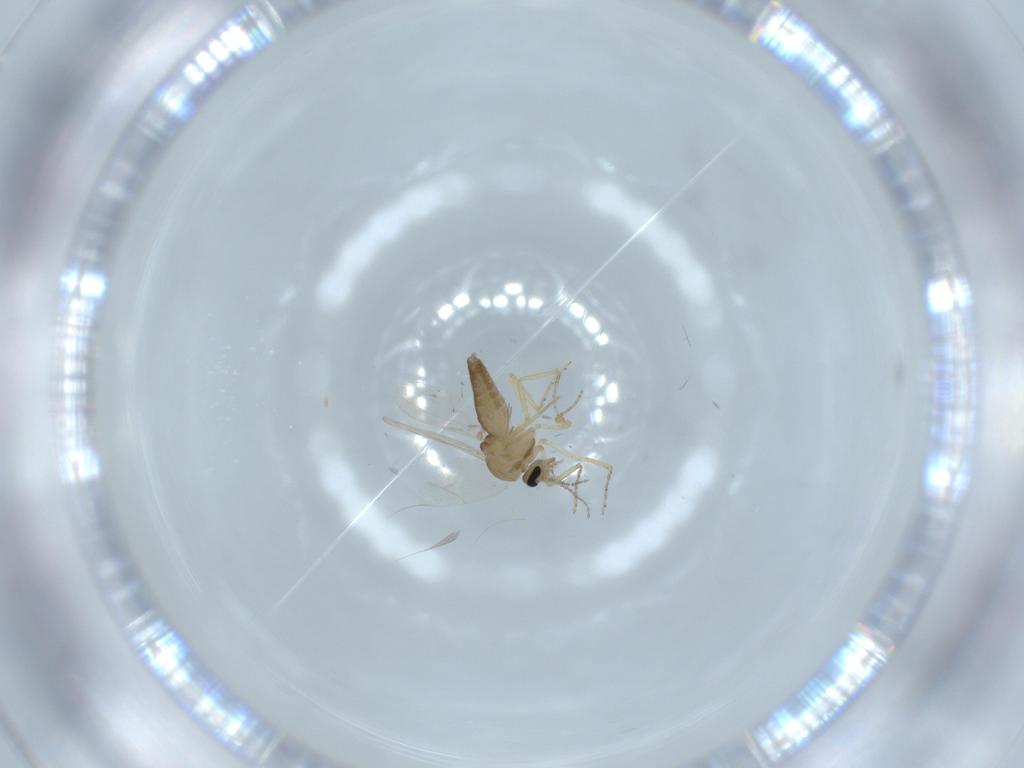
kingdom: Animalia
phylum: Arthropoda
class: Insecta
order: Diptera
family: Ceratopogonidae
